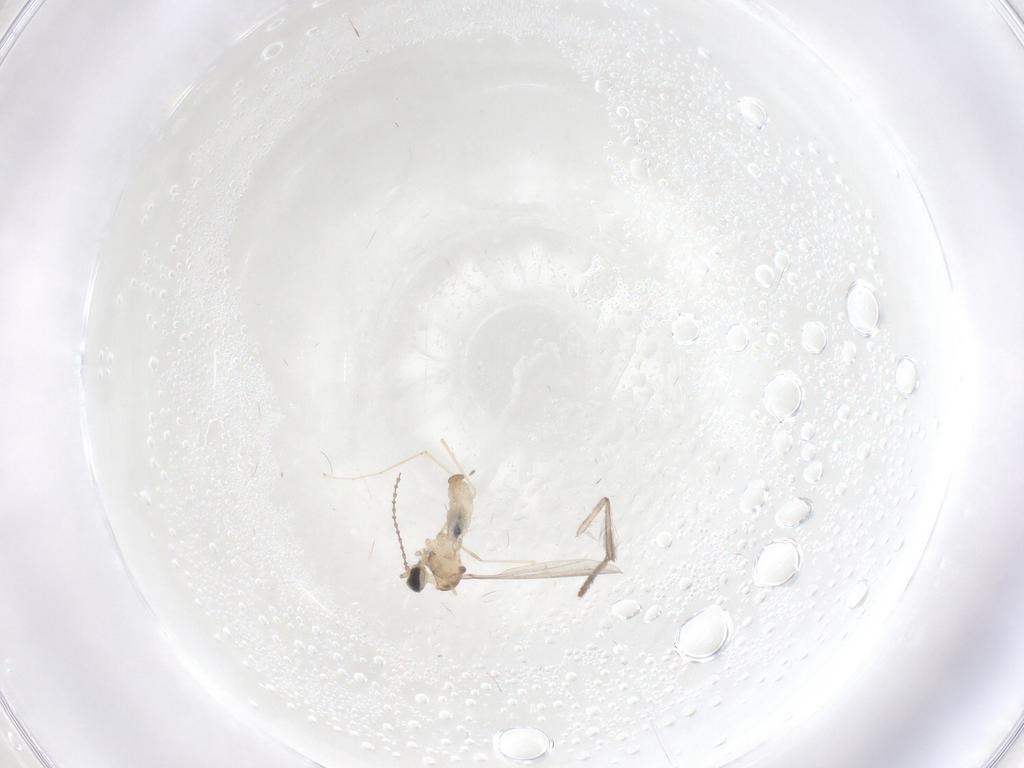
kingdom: Animalia
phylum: Arthropoda
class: Insecta
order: Diptera
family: Cecidomyiidae
